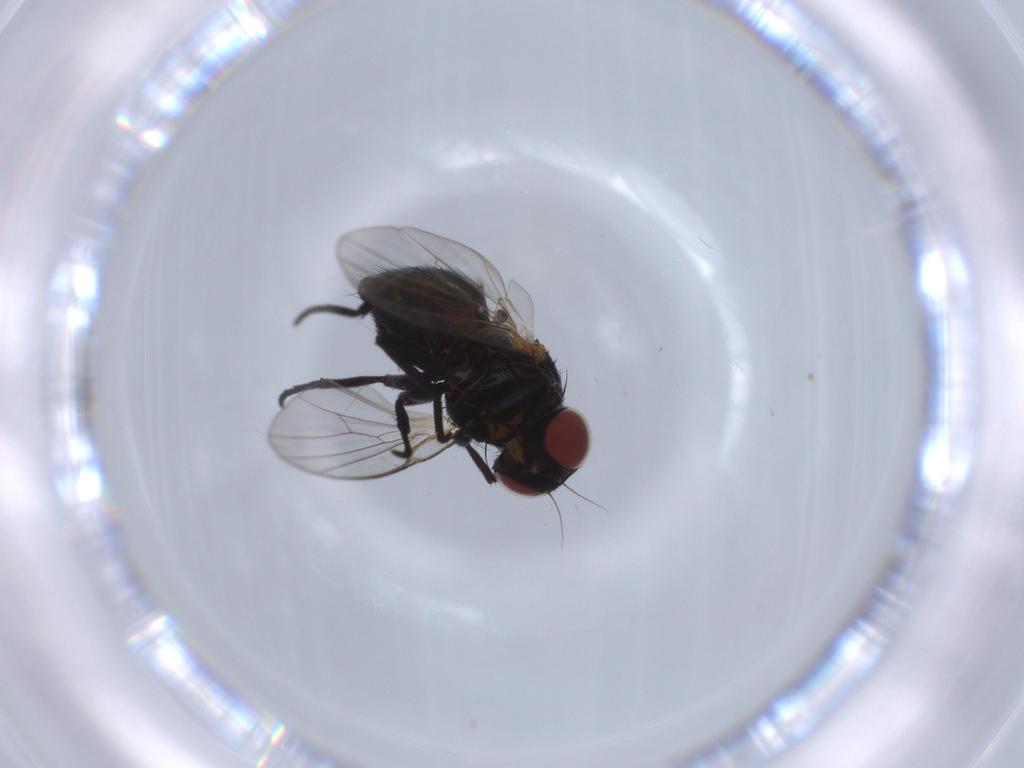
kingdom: Animalia
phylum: Arthropoda
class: Insecta
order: Diptera
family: Agromyzidae
